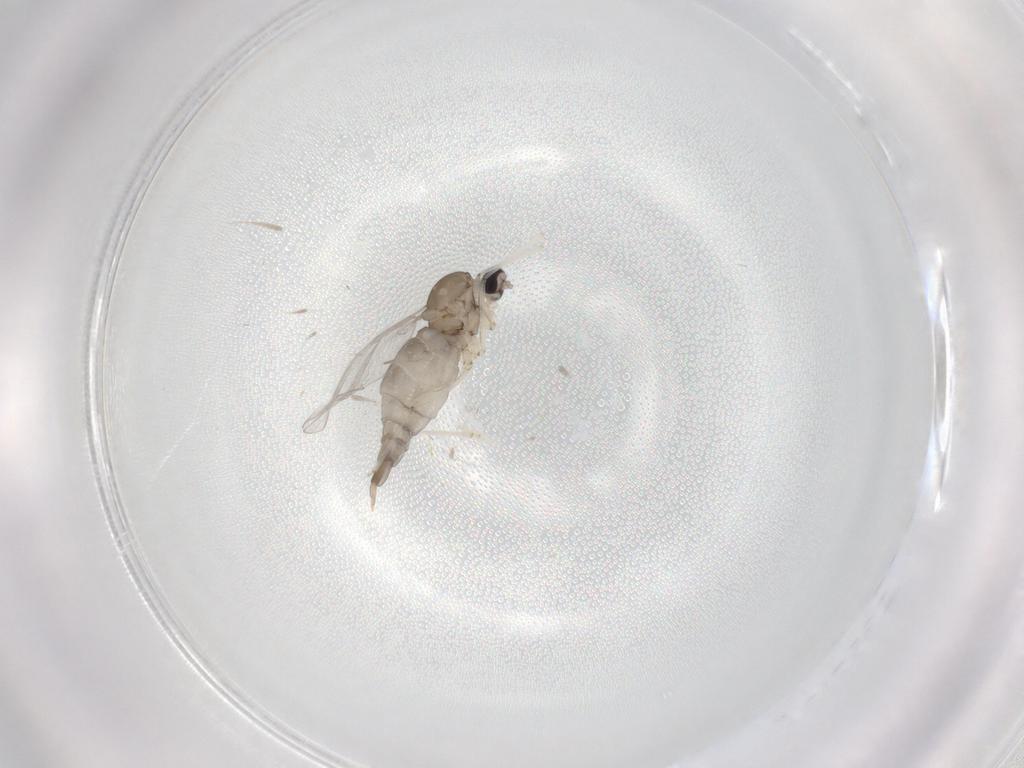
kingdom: Animalia
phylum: Arthropoda
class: Insecta
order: Diptera
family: Cecidomyiidae
